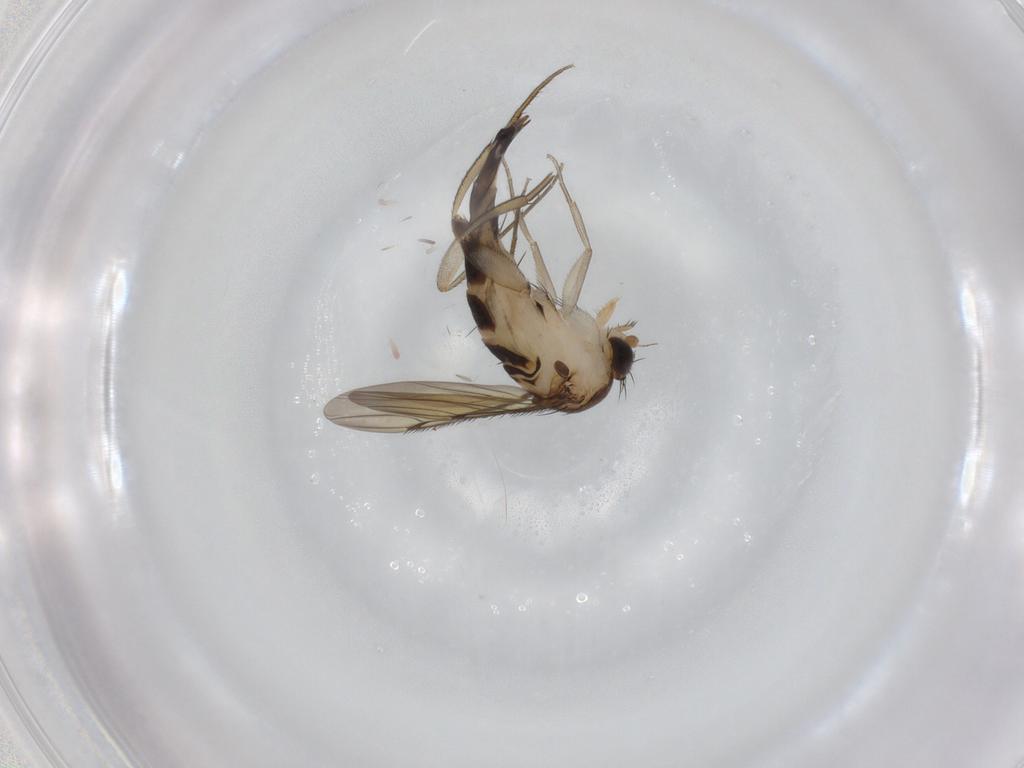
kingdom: Animalia
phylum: Arthropoda
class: Insecta
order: Diptera
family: Phoridae
